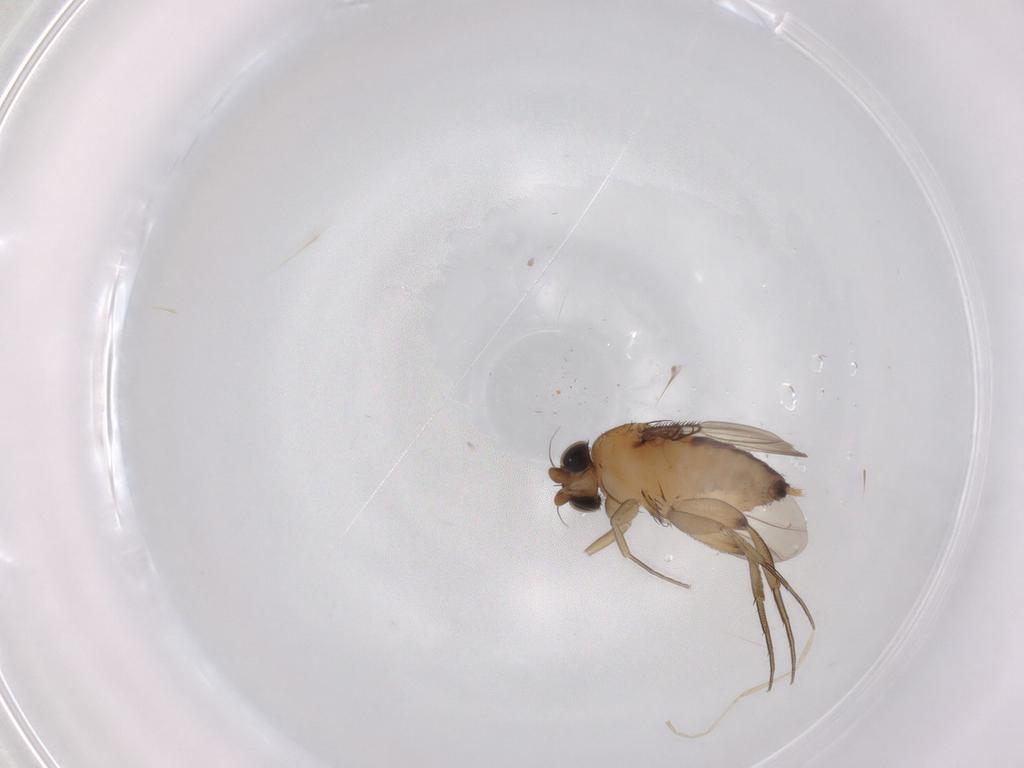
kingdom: Animalia
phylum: Arthropoda
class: Insecta
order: Diptera
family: Phoridae
